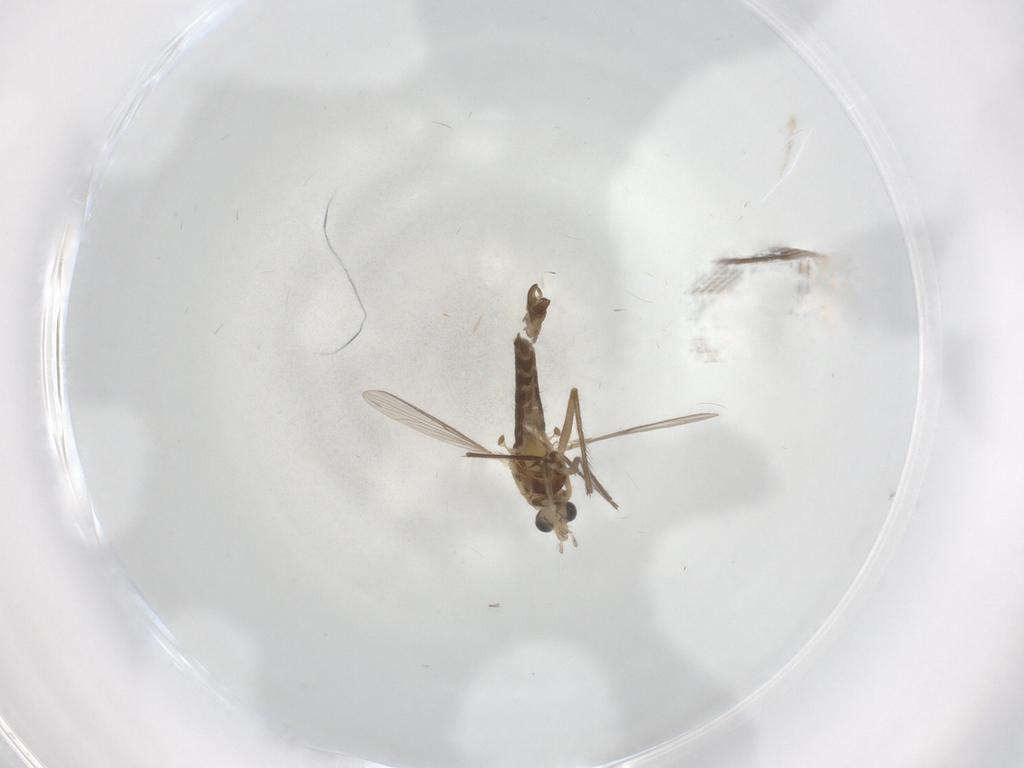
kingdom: Animalia
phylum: Arthropoda
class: Insecta
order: Diptera
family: Chironomidae
